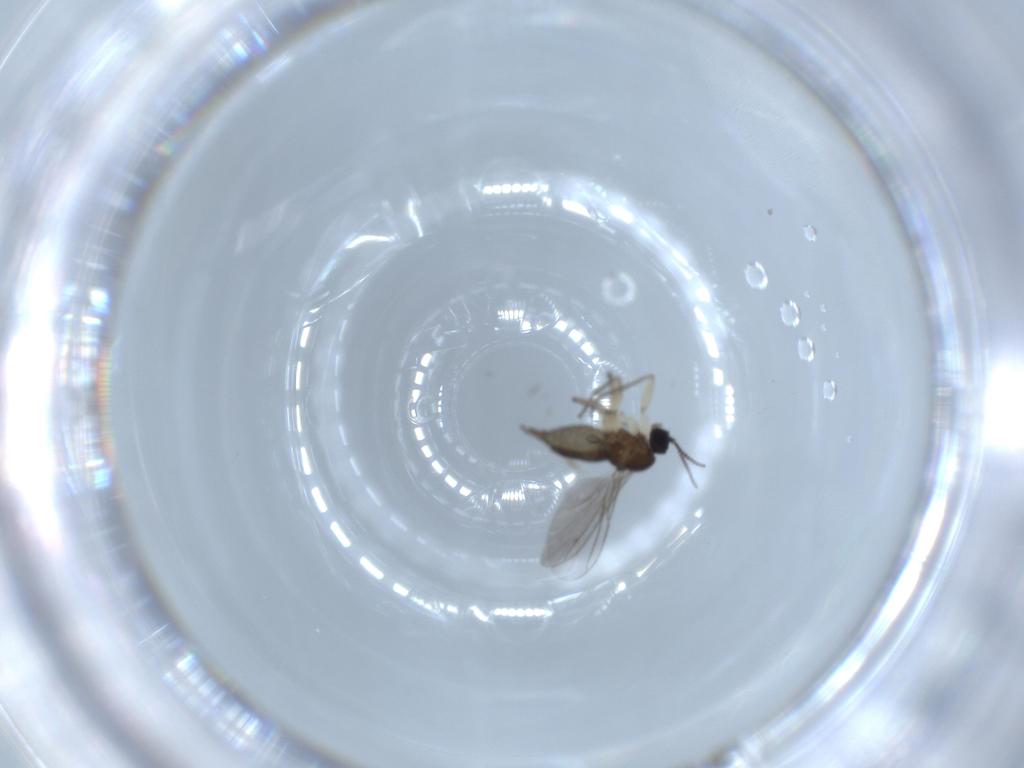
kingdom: Animalia
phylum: Arthropoda
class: Insecta
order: Diptera
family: Sciaridae
